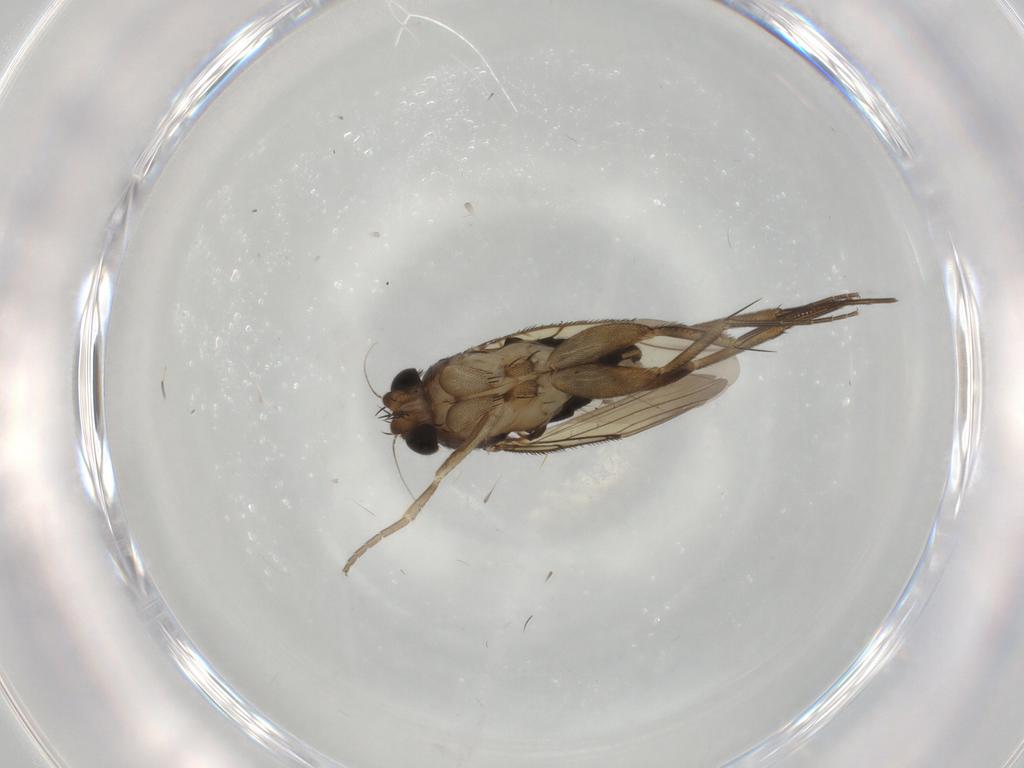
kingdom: Animalia
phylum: Arthropoda
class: Insecta
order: Diptera
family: Phoridae
